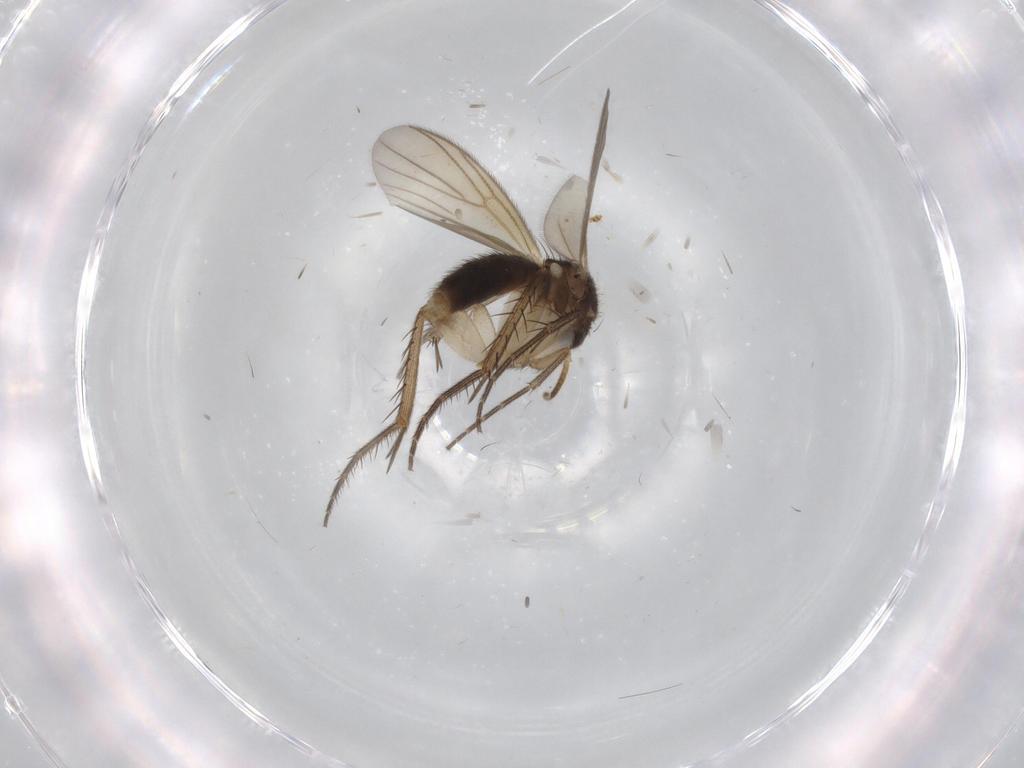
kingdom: Animalia
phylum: Arthropoda
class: Insecta
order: Diptera
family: Mycetophilidae
